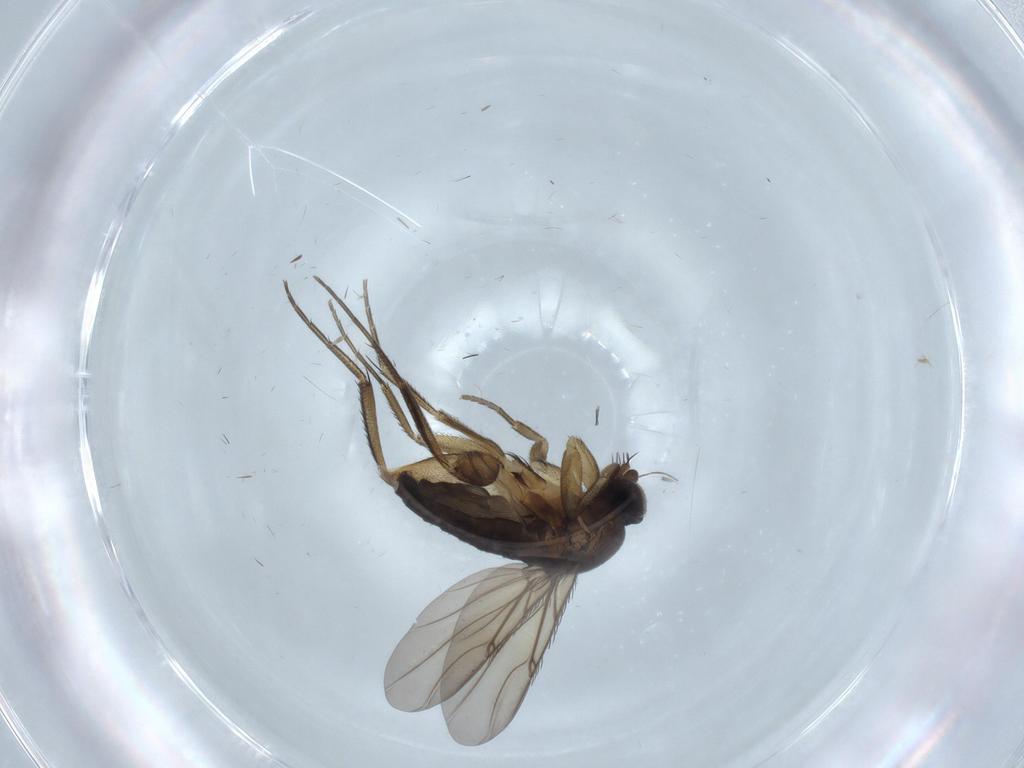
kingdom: Animalia
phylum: Arthropoda
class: Insecta
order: Diptera
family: Phoridae
